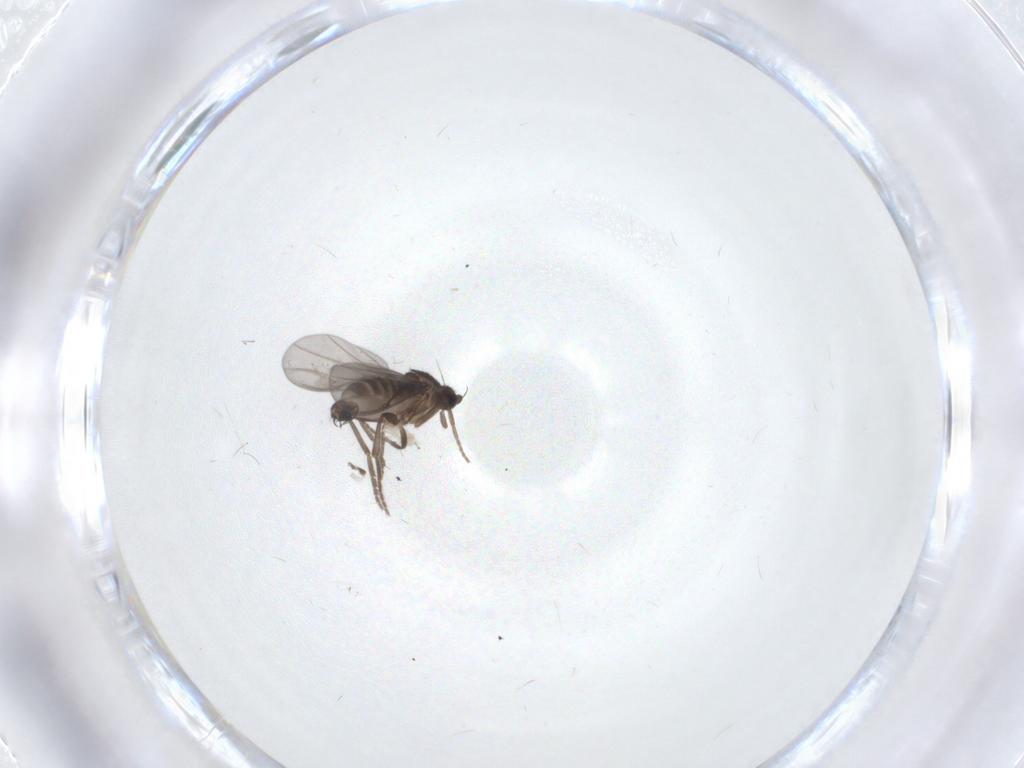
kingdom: Animalia
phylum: Arthropoda
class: Insecta
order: Diptera
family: Phoridae
